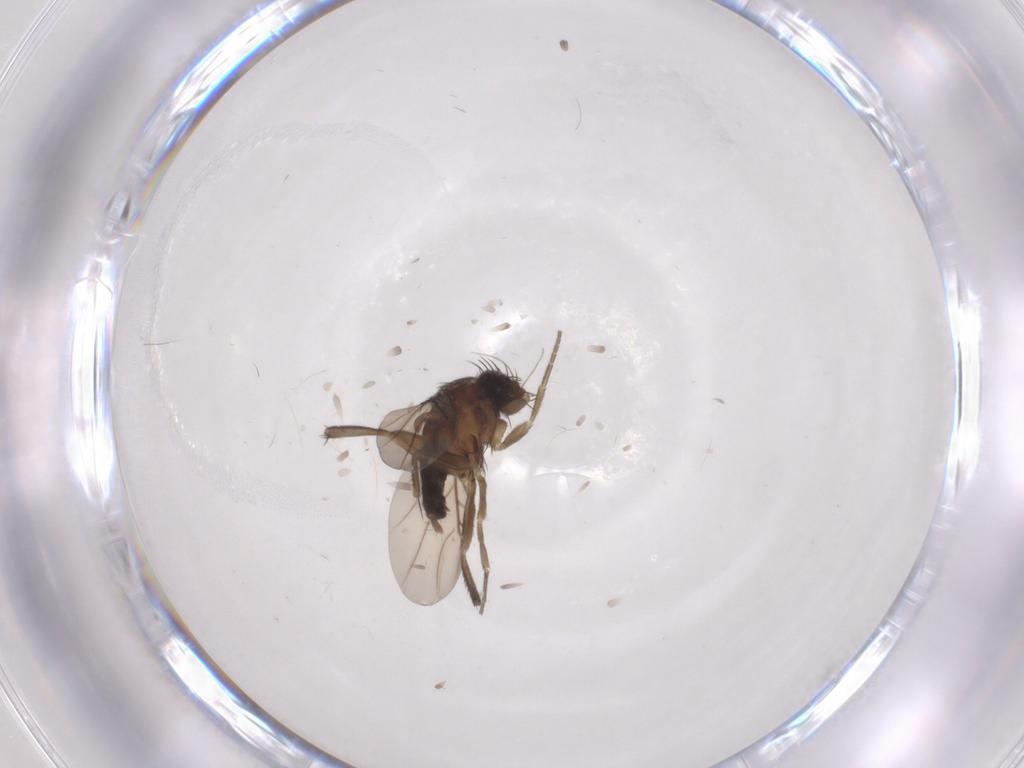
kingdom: Animalia
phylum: Arthropoda
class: Insecta
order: Diptera
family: Phoridae
